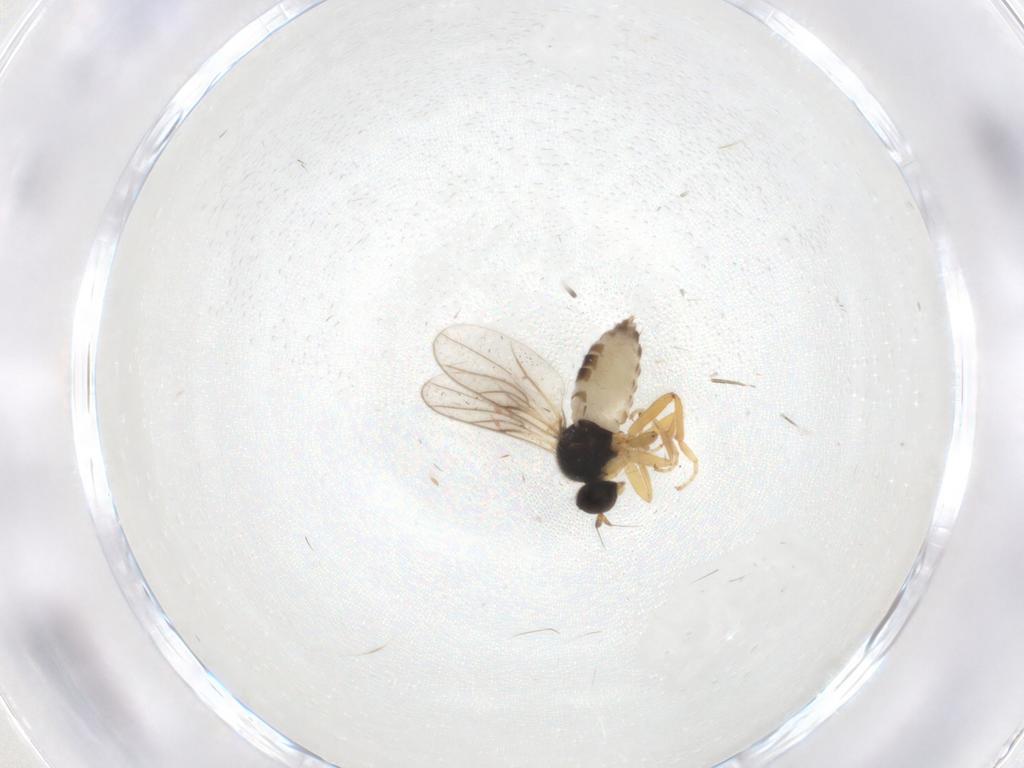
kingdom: Animalia
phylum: Arthropoda
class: Insecta
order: Diptera
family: Hybotidae
